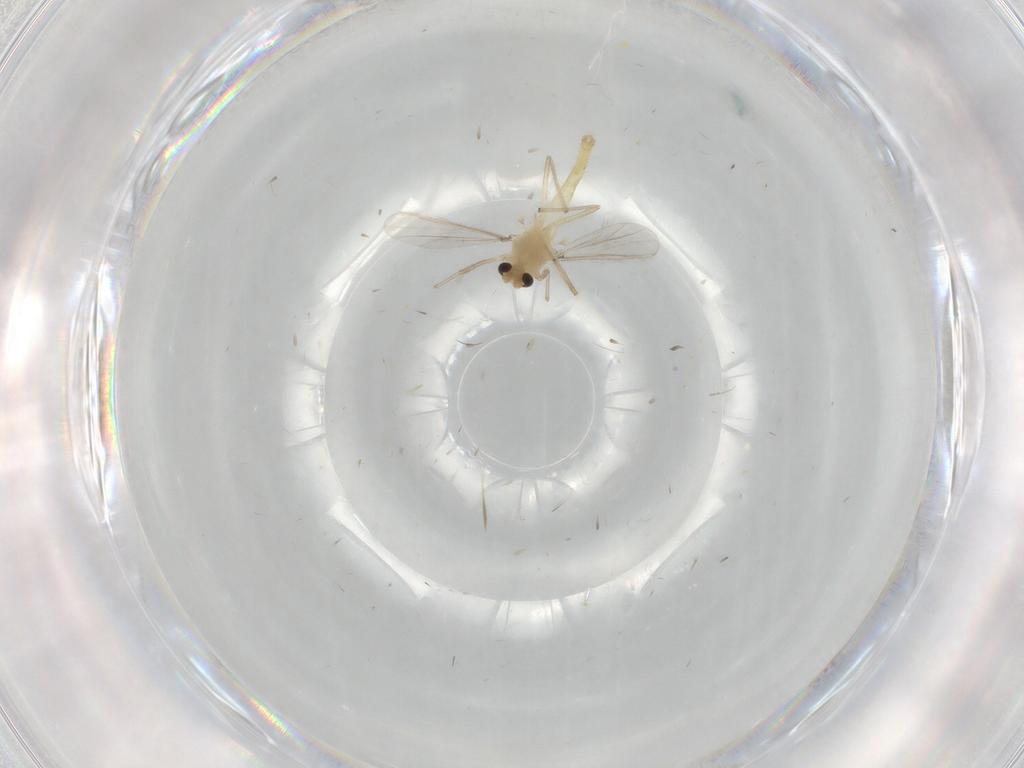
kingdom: Animalia
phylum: Arthropoda
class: Insecta
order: Diptera
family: Chironomidae
